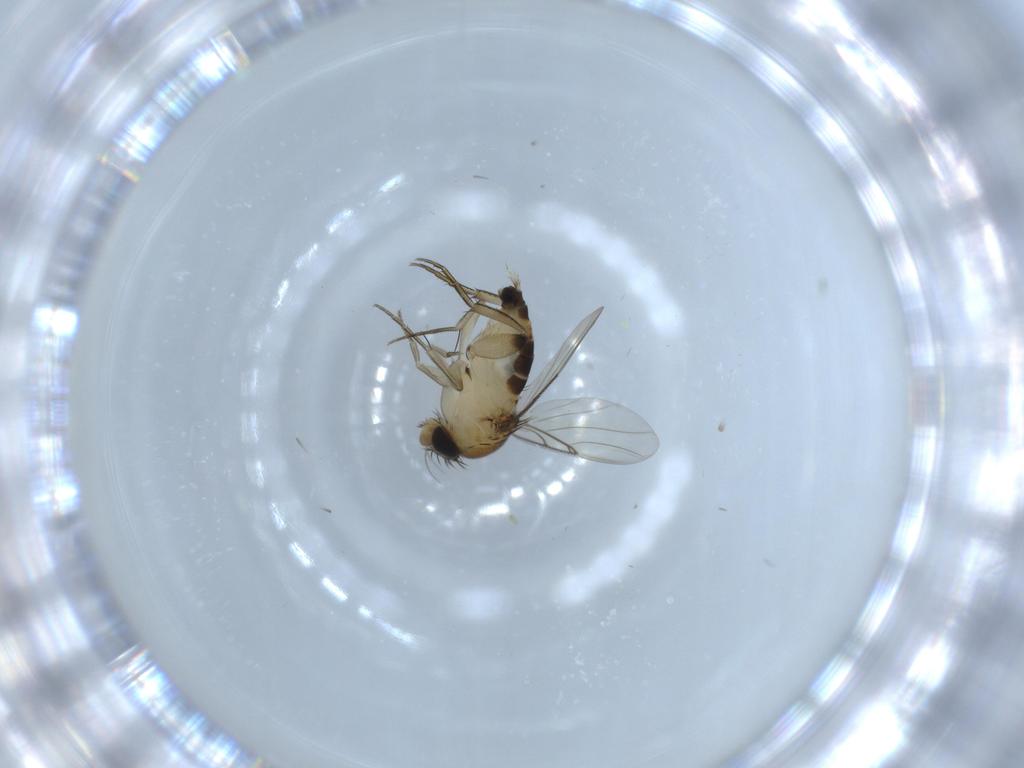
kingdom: Animalia
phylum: Arthropoda
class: Insecta
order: Diptera
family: Phoridae
